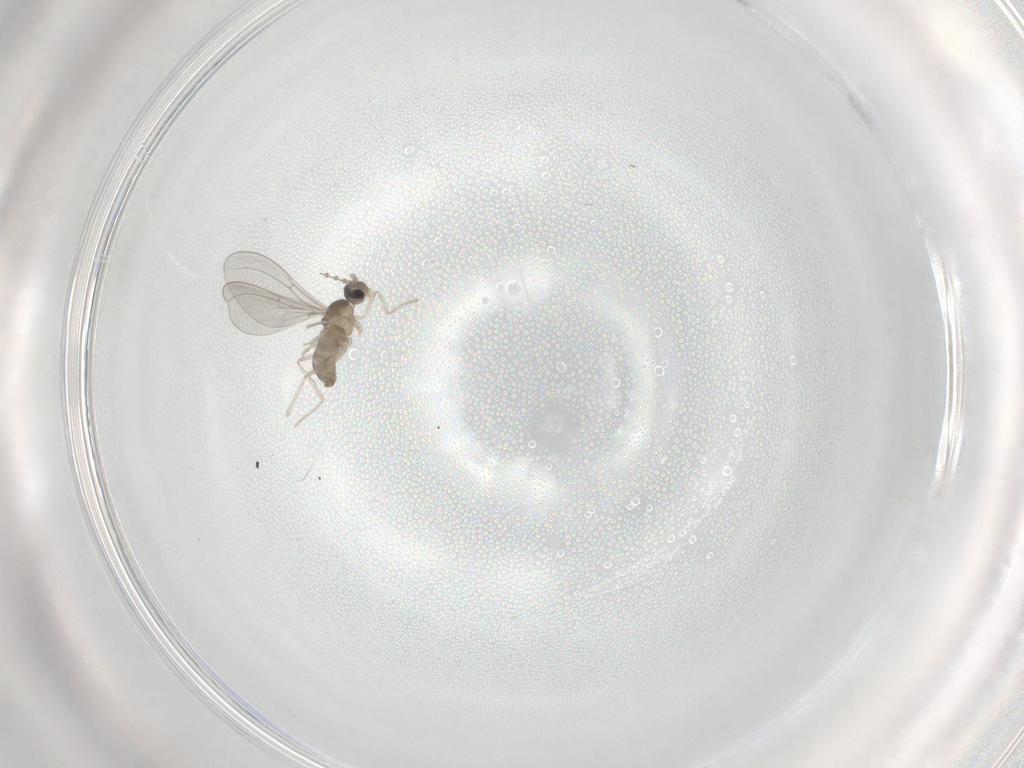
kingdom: Animalia
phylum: Arthropoda
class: Insecta
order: Diptera
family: Cecidomyiidae
